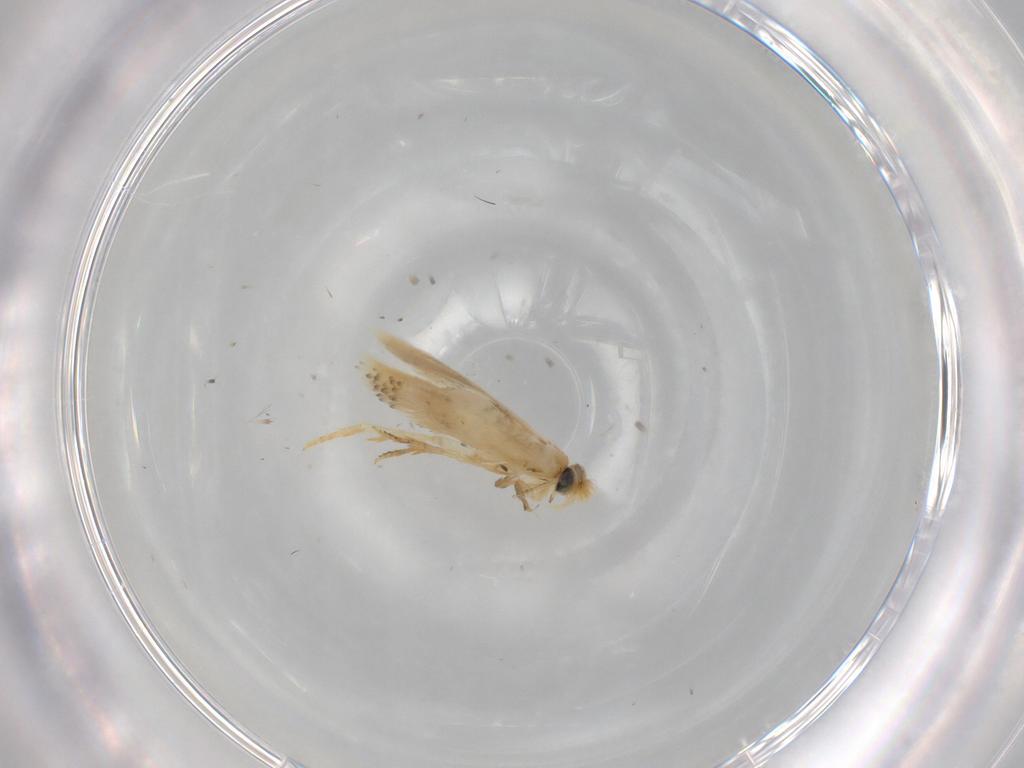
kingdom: Animalia
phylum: Arthropoda
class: Insecta
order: Lepidoptera
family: Nepticulidae
